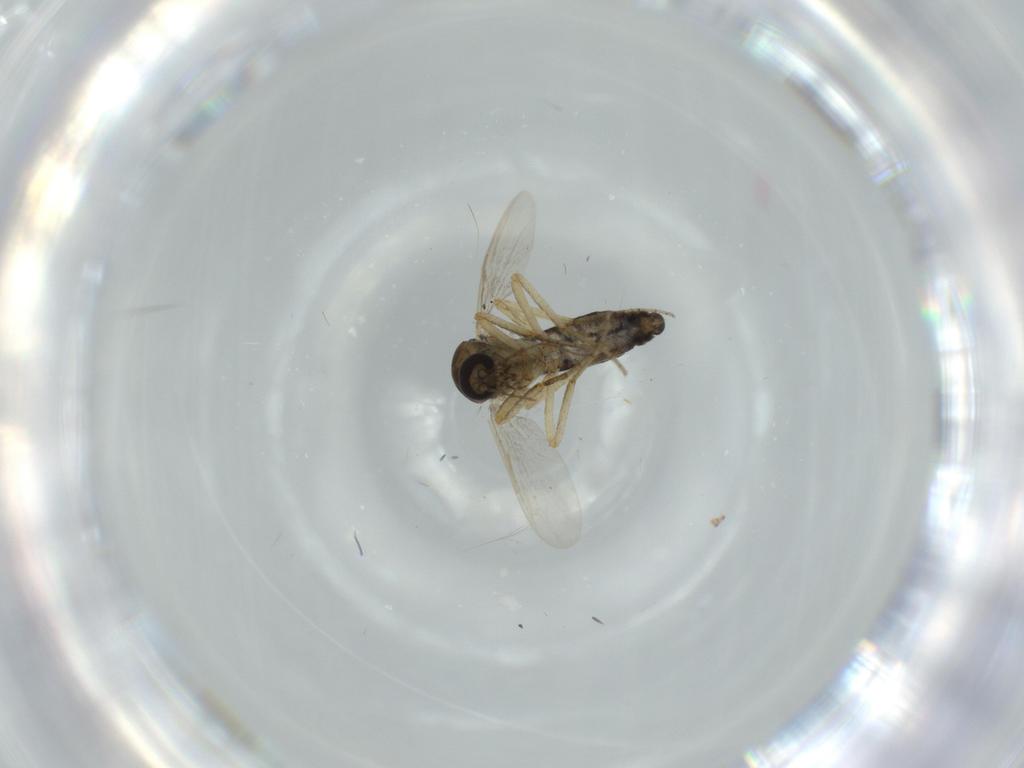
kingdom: Animalia
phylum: Arthropoda
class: Insecta
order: Diptera
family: Ceratopogonidae
